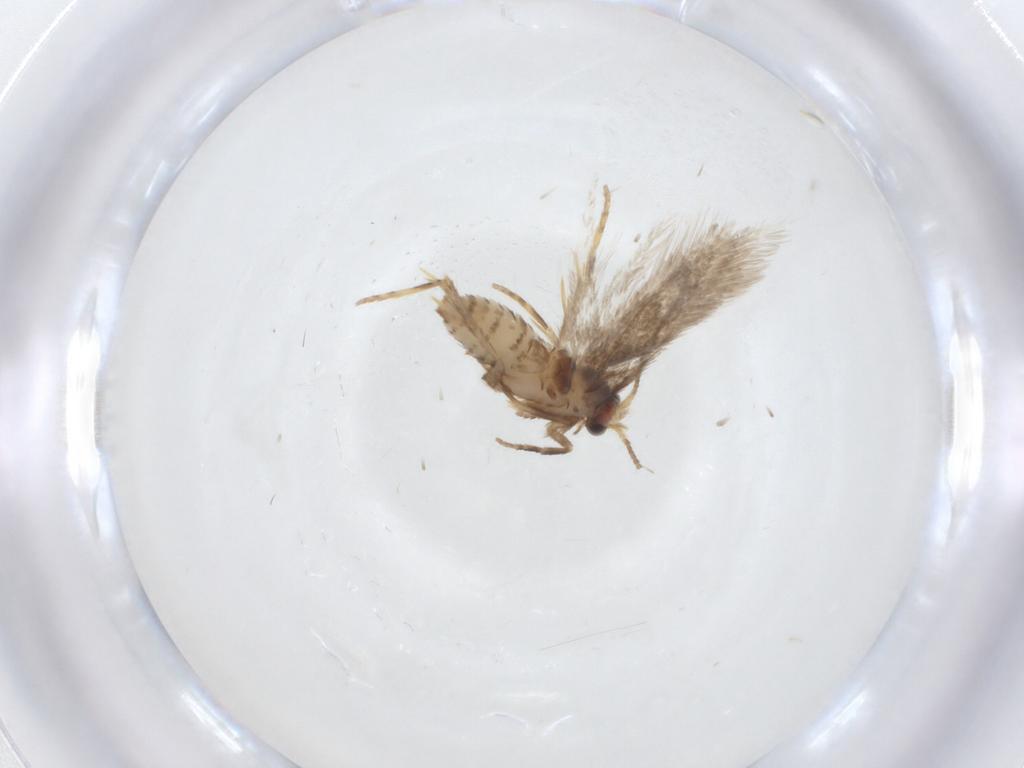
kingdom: Animalia
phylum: Arthropoda
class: Insecta
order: Lepidoptera
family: Nepticulidae
